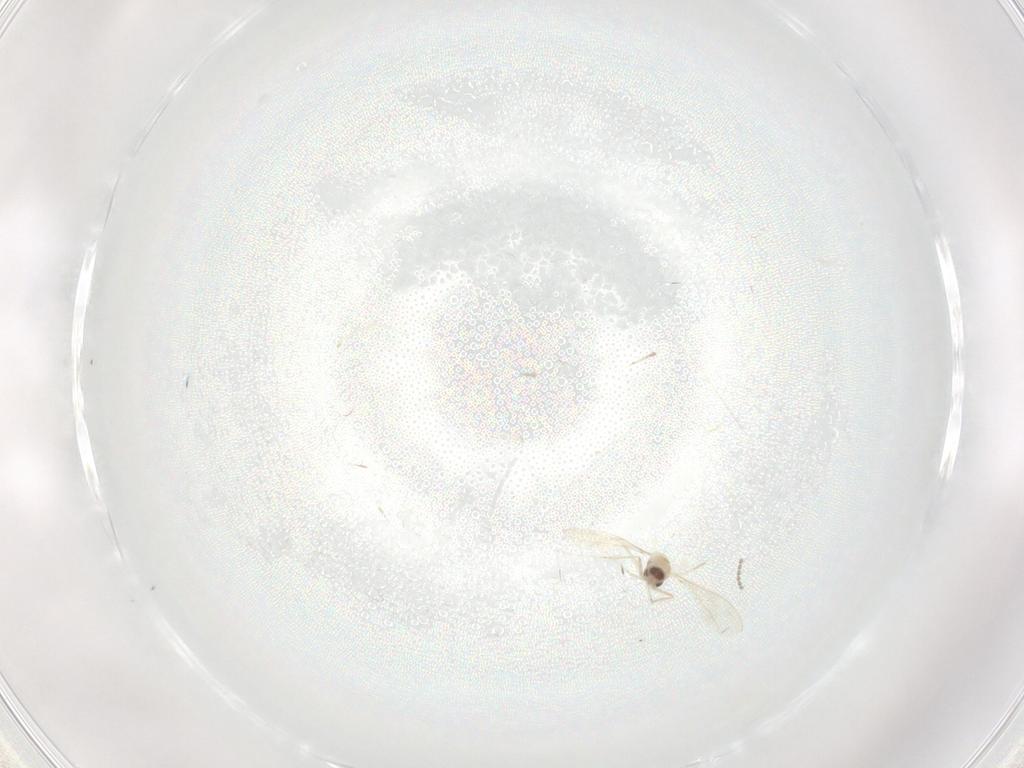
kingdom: Animalia
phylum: Arthropoda
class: Insecta
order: Diptera
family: Cecidomyiidae
